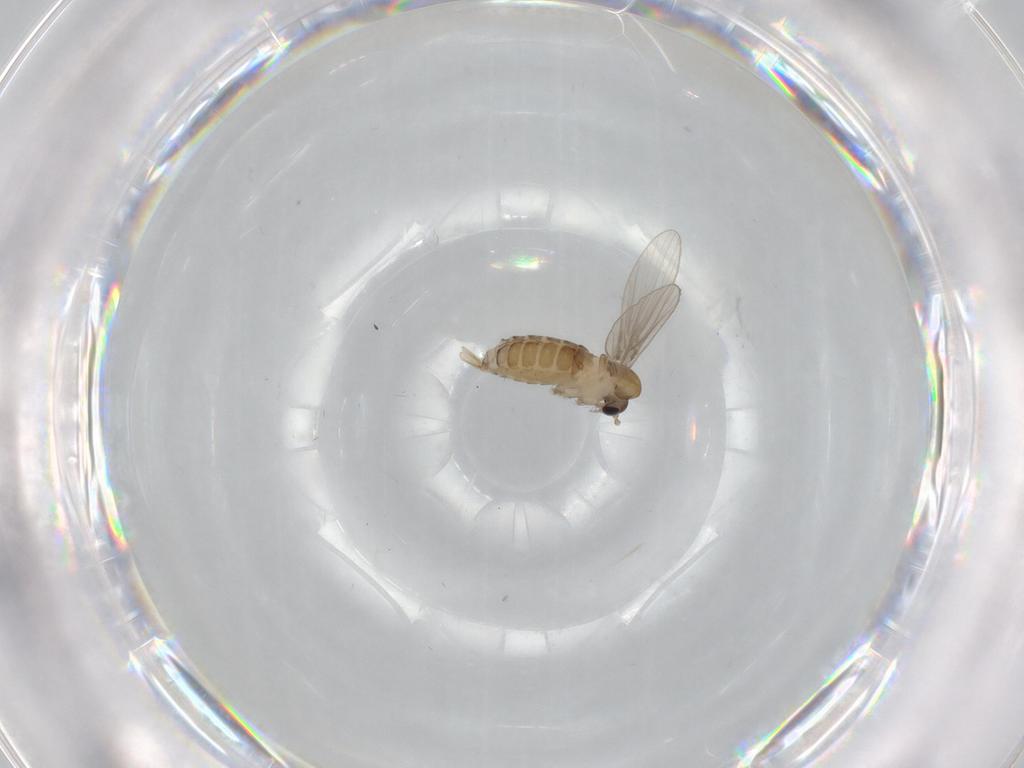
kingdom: Animalia
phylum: Arthropoda
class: Insecta
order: Diptera
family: Psychodidae
